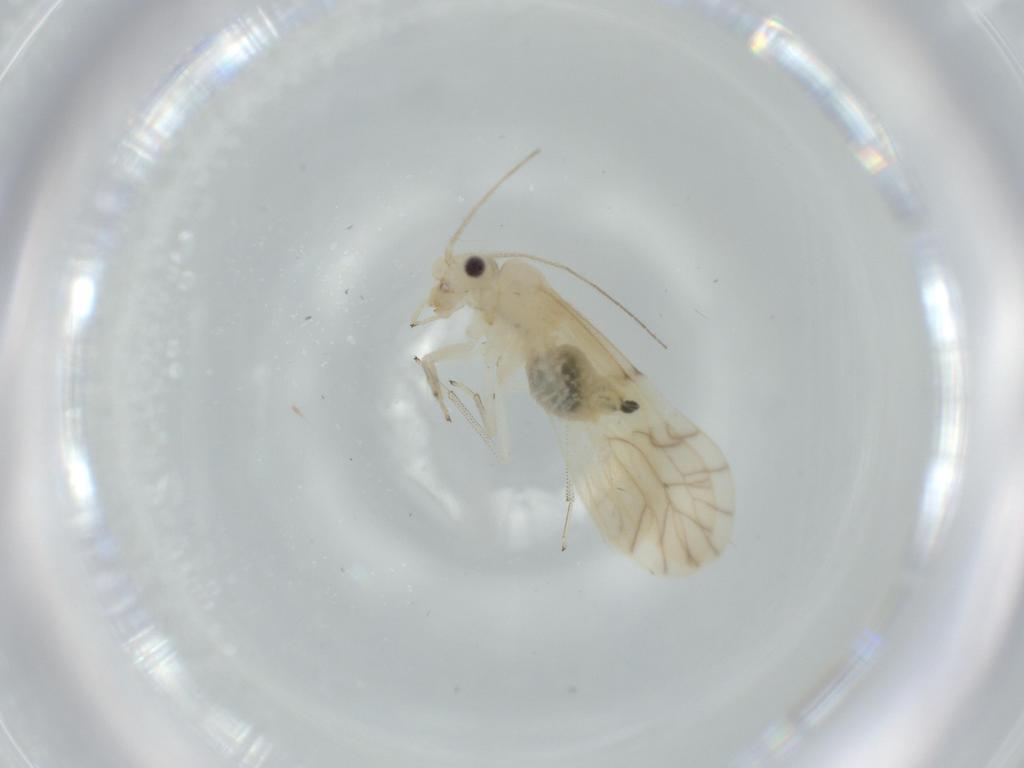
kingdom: Animalia
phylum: Arthropoda
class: Insecta
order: Psocodea
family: Caeciliusidae
